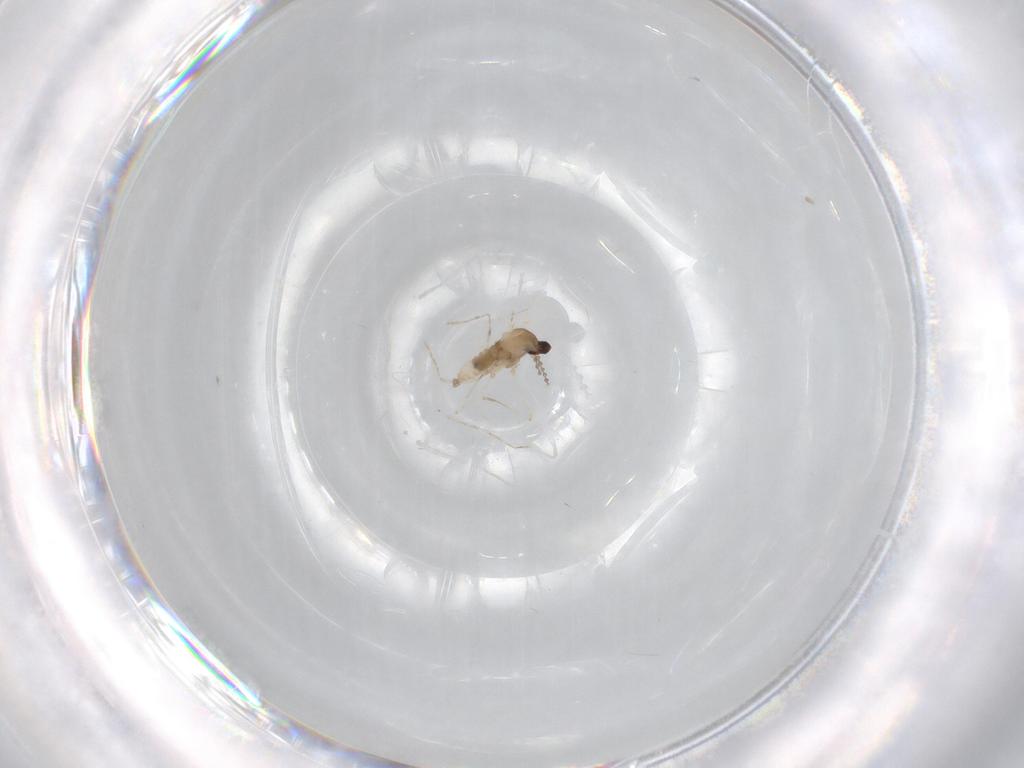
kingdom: Animalia
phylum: Arthropoda
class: Insecta
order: Diptera
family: Cecidomyiidae
